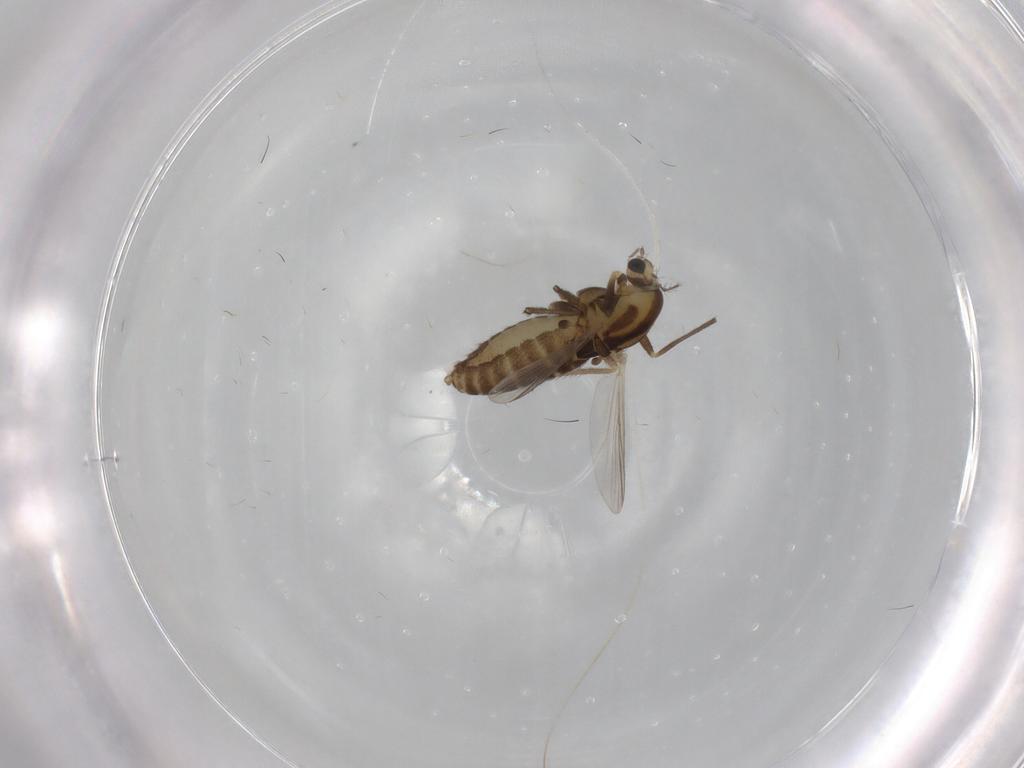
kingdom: Animalia
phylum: Arthropoda
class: Insecta
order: Diptera
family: Chironomidae
